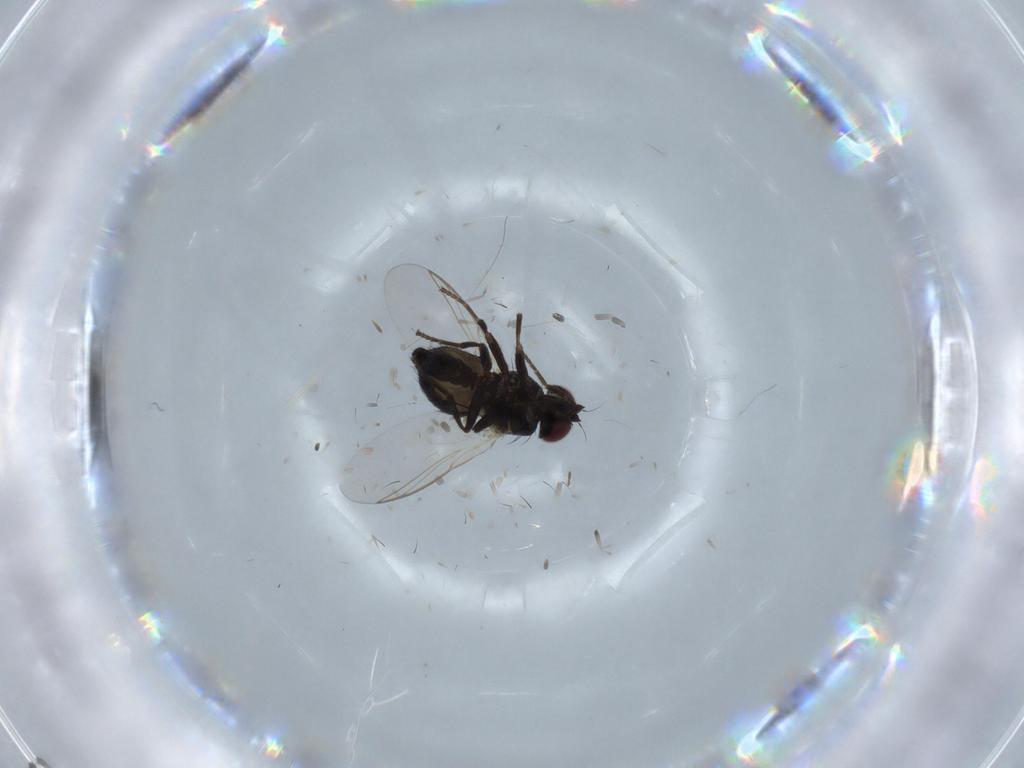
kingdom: Animalia
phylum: Arthropoda
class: Insecta
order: Diptera
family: Agromyzidae
